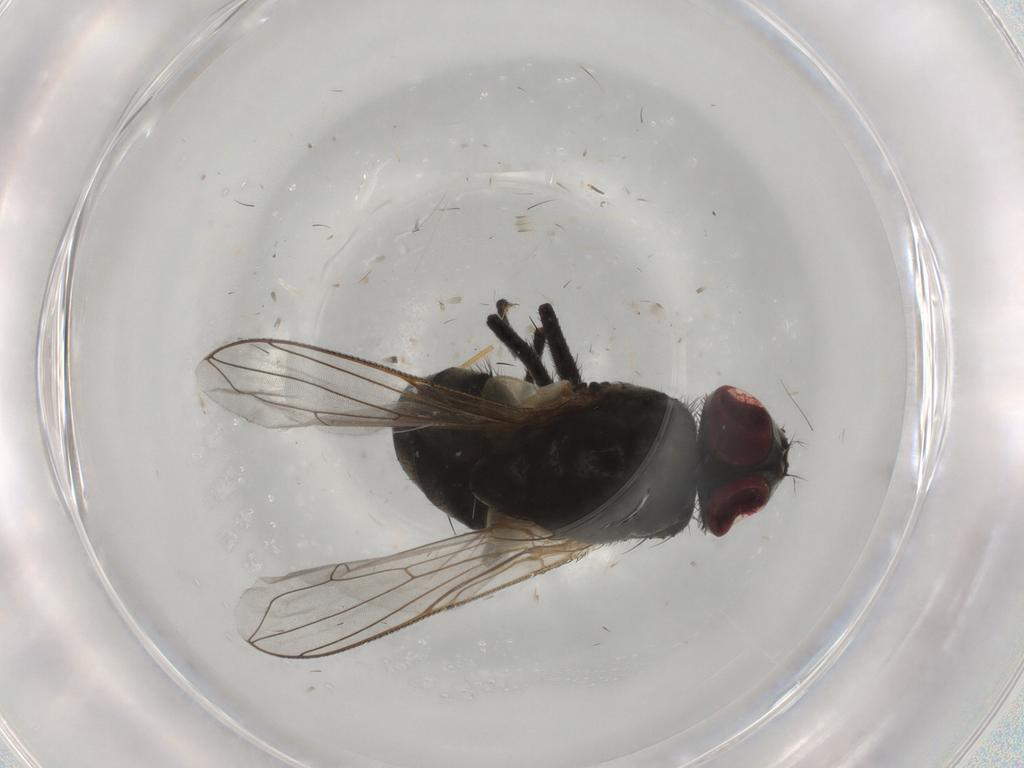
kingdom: Animalia
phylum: Arthropoda
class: Insecta
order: Diptera
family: Muscidae
